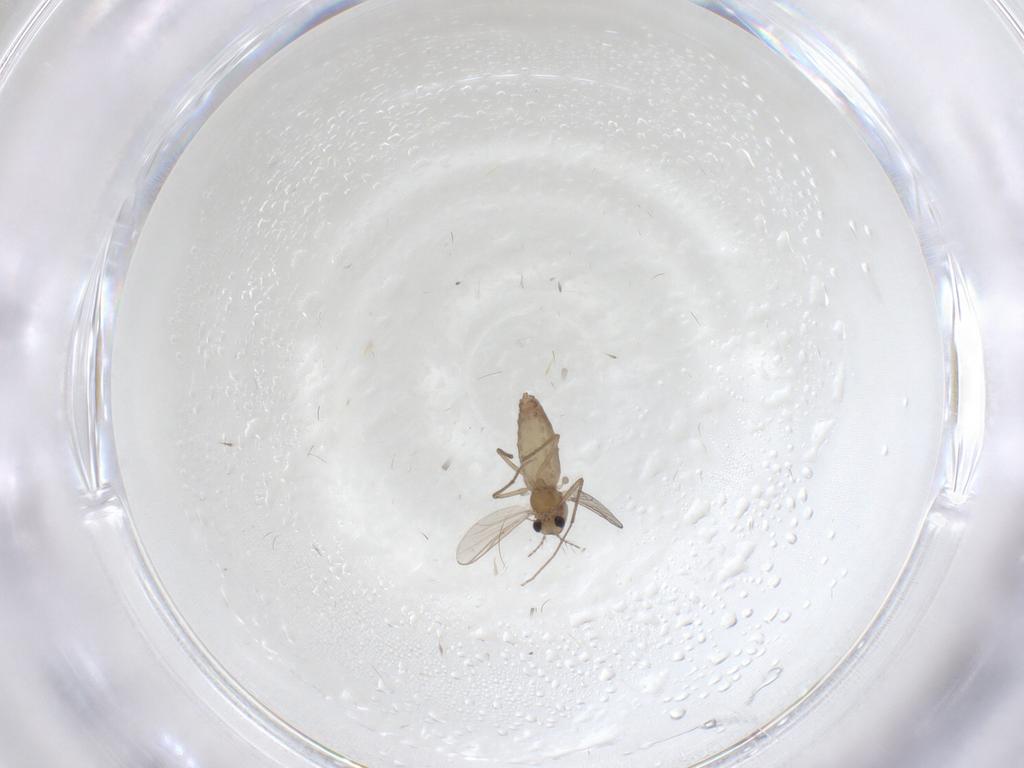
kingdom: Animalia
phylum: Arthropoda
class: Insecta
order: Diptera
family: Chironomidae
